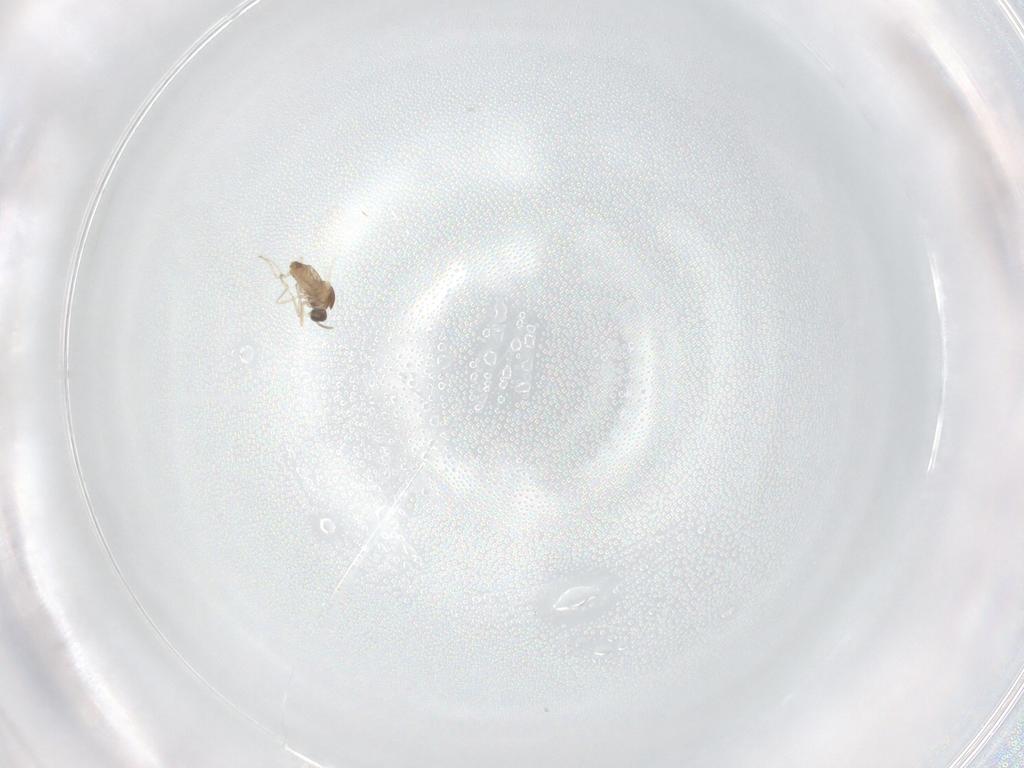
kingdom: Animalia
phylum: Arthropoda
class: Insecta
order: Diptera
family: Cecidomyiidae
